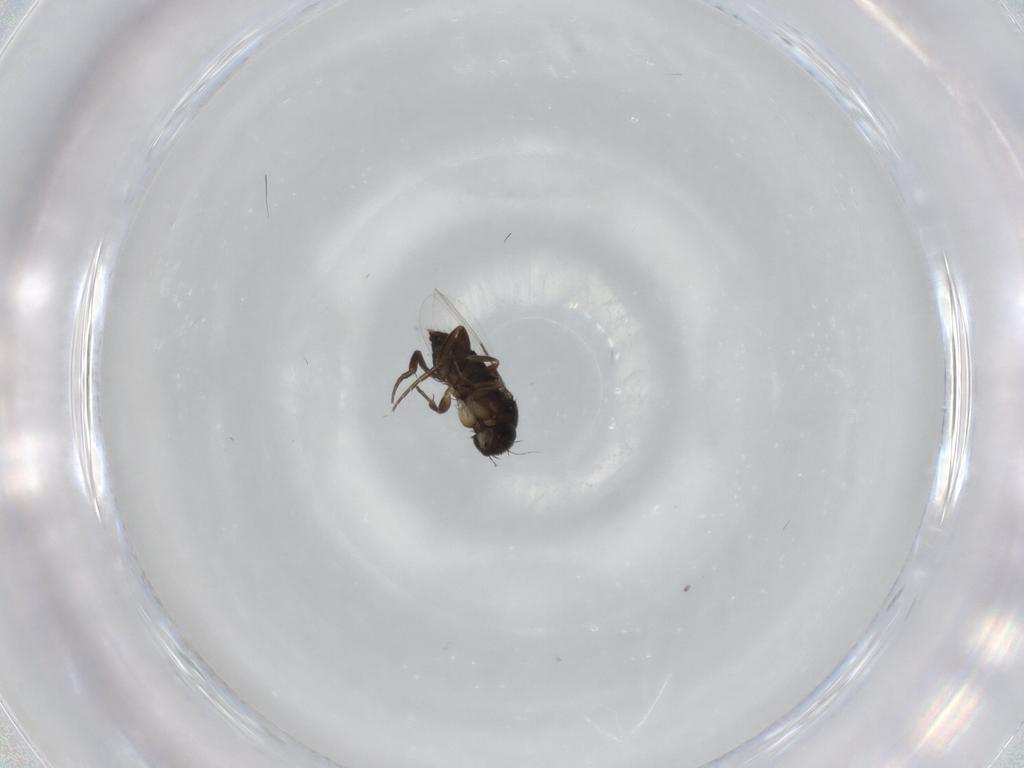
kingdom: Animalia
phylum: Arthropoda
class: Insecta
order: Diptera
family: Phoridae
